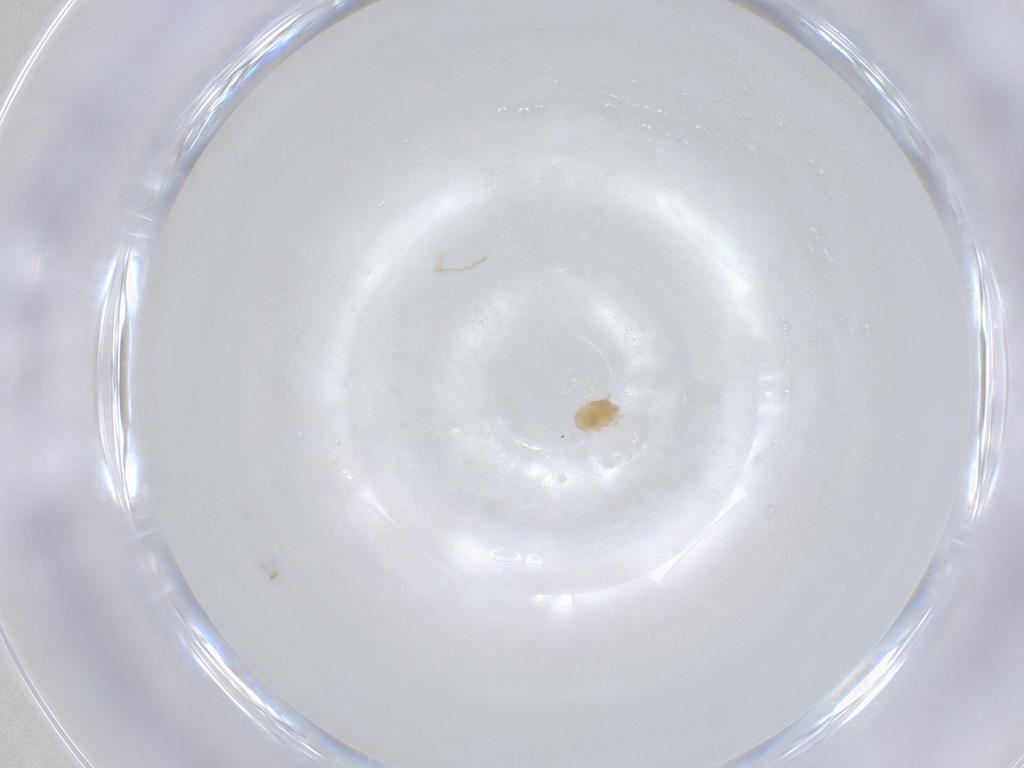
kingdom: Animalia
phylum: Arthropoda
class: Arachnida
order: Trombidiformes
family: Tetranychidae
